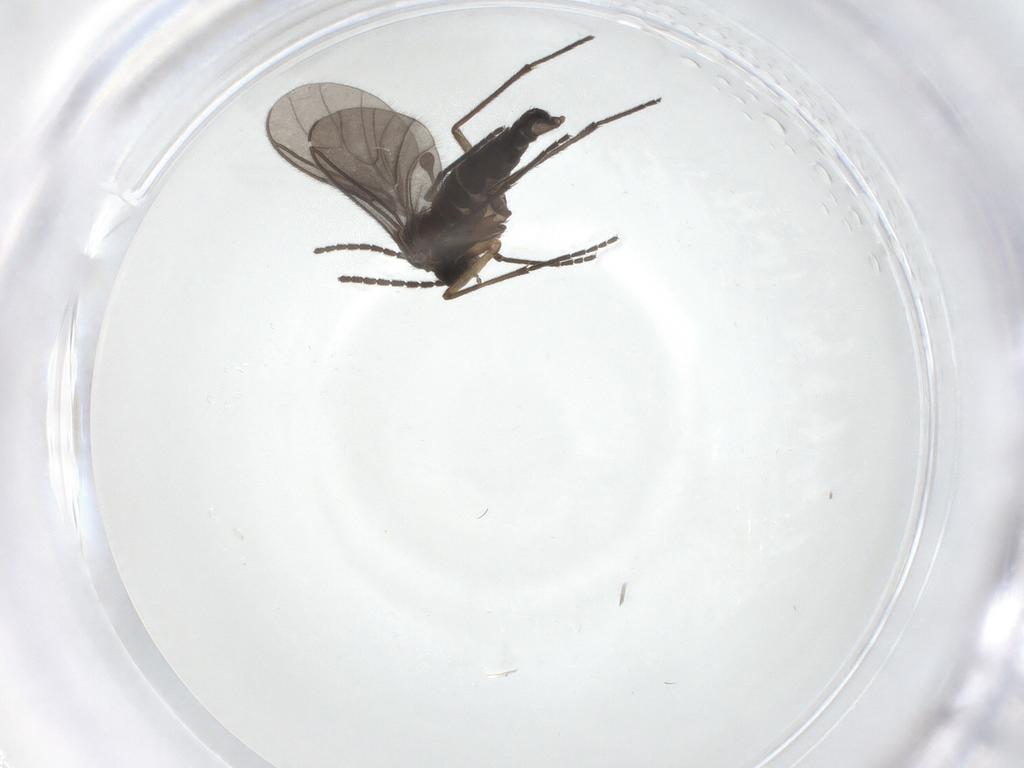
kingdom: Animalia
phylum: Arthropoda
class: Insecta
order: Diptera
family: Sciaridae
